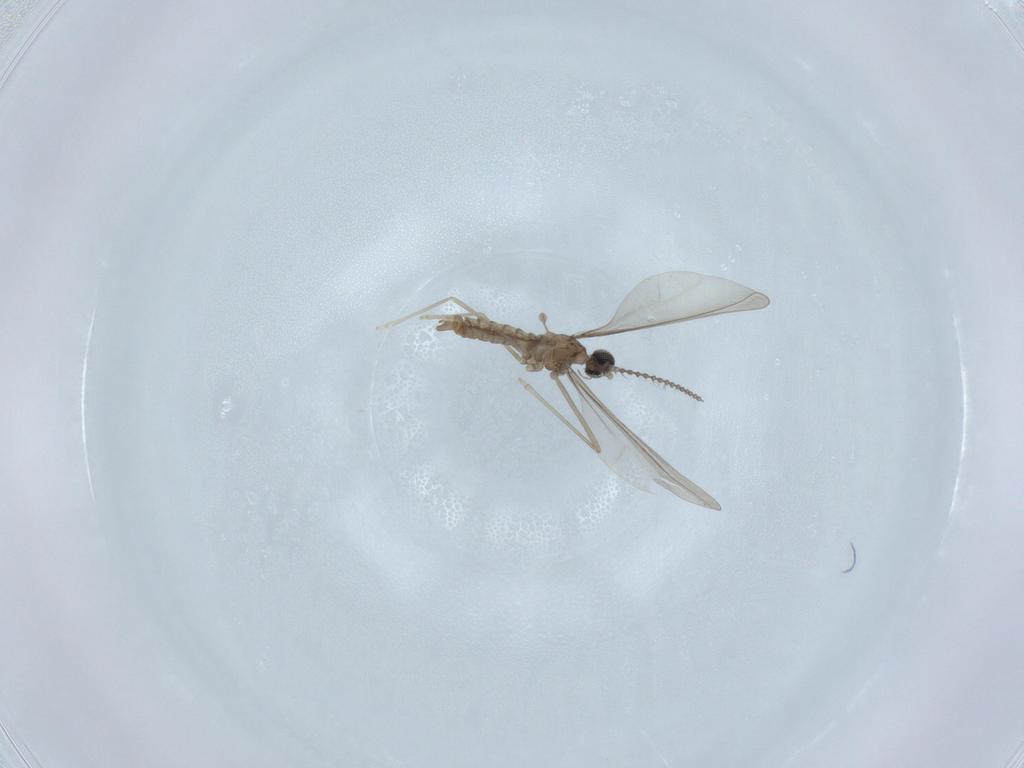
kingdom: Animalia
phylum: Arthropoda
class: Insecta
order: Diptera
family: Cecidomyiidae
